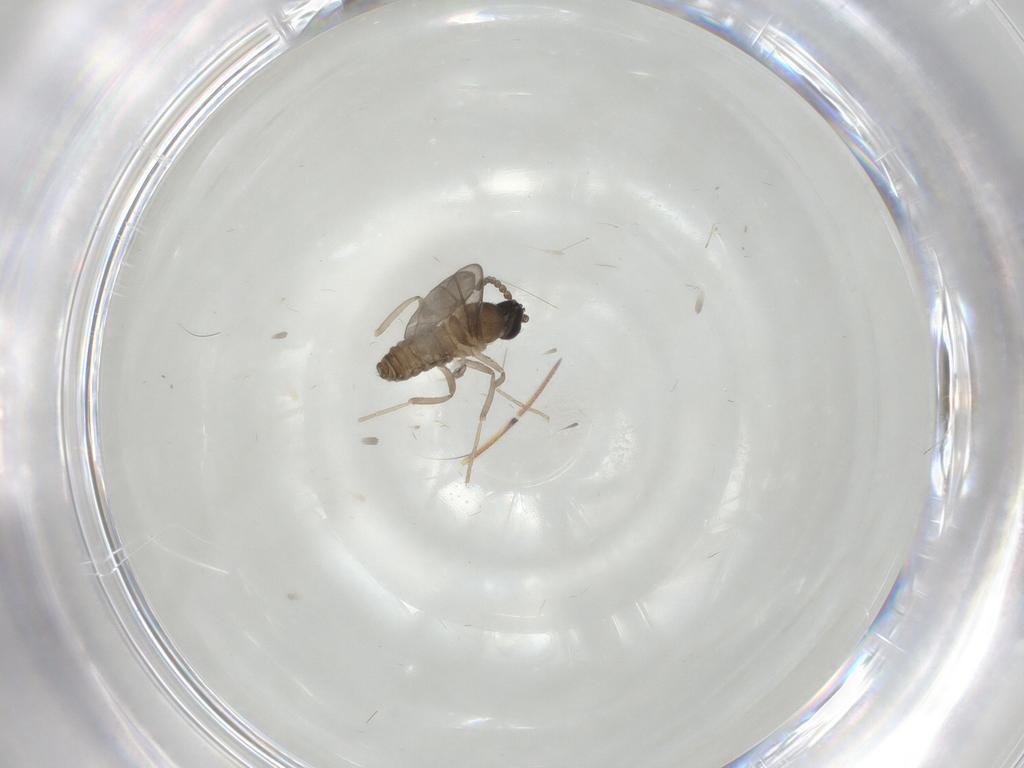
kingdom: Animalia
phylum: Arthropoda
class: Insecta
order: Diptera
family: Cecidomyiidae
